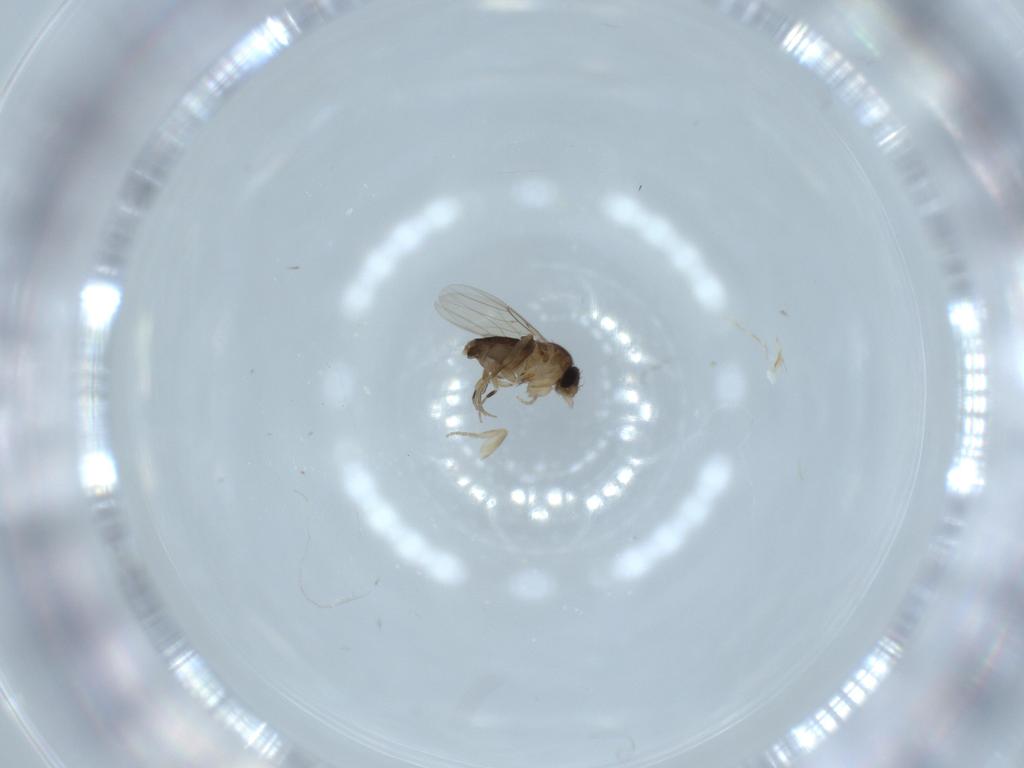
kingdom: Animalia
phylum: Arthropoda
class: Insecta
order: Diptera
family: Phoridae
